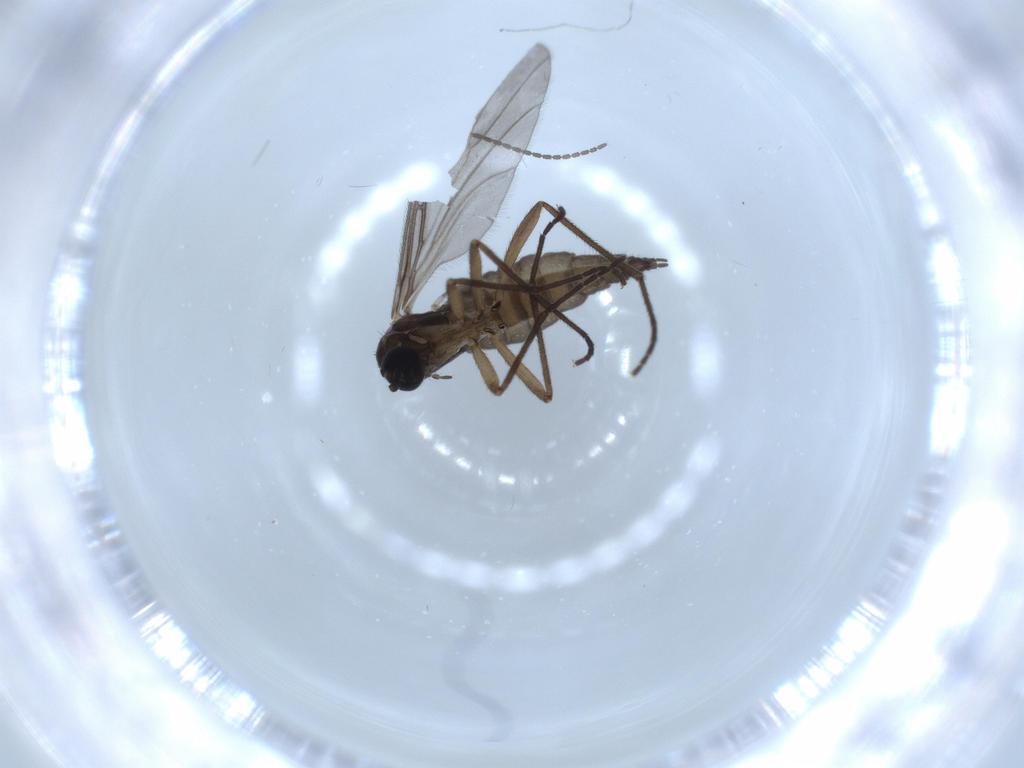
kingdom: Animalia
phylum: Arthropoda
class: Insecta
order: Diptera
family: Sciaridae
